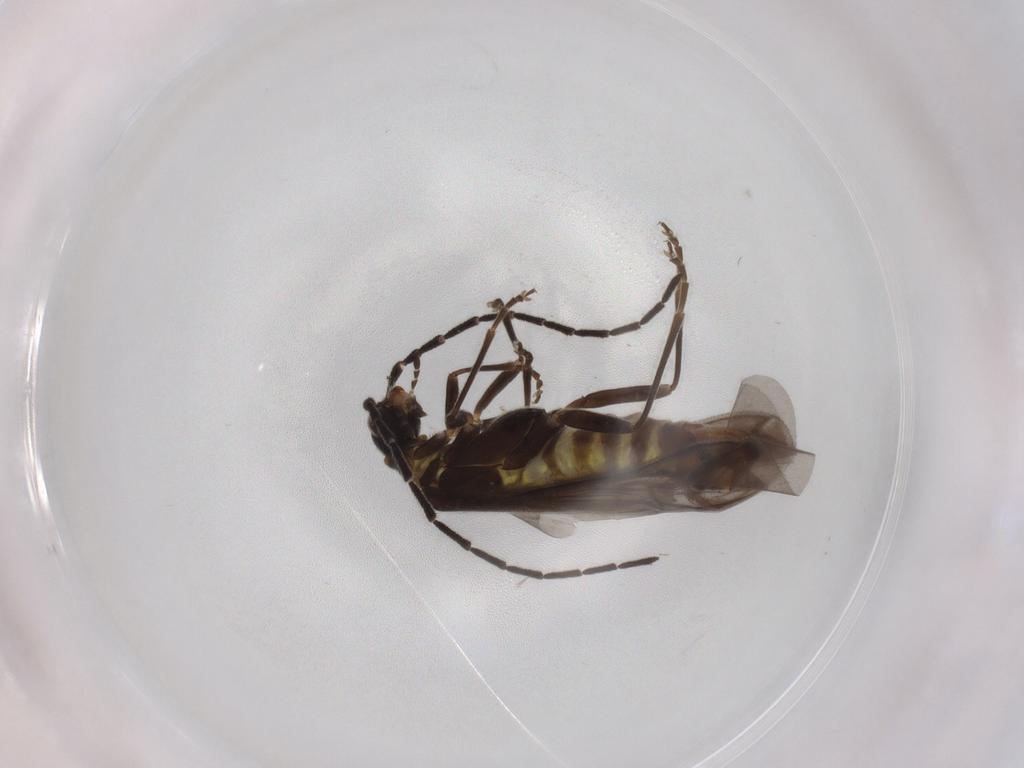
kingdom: Animalia
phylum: Arthropoda
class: Insecta
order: Coleoptera
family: Cantharidae
